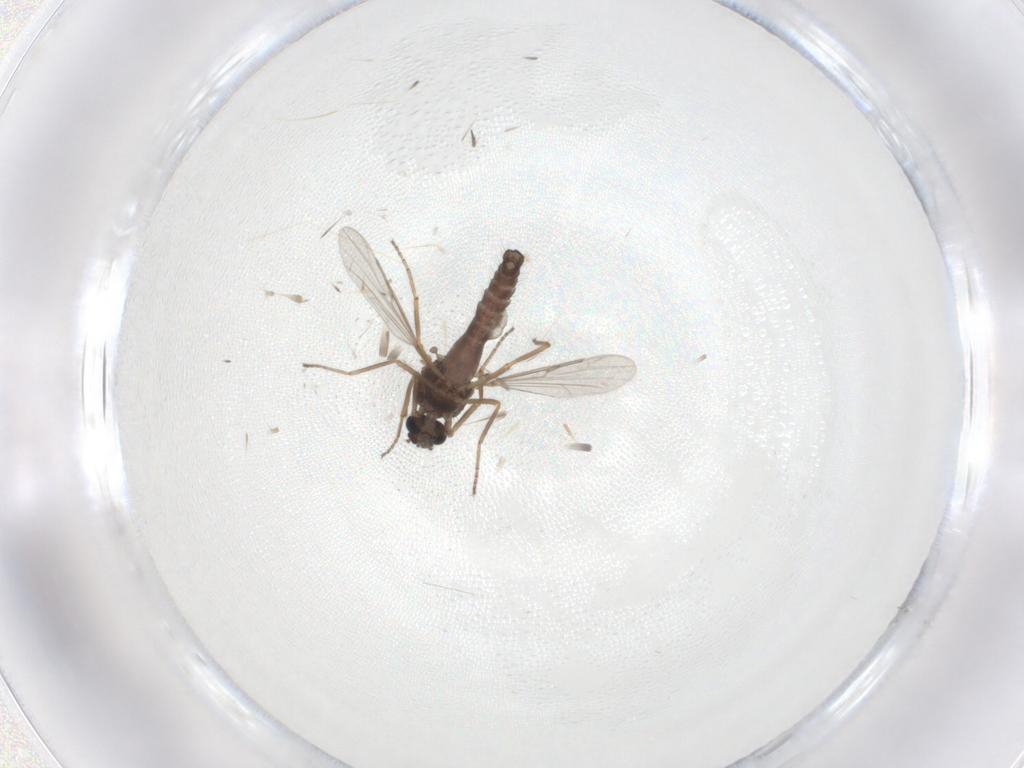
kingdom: Animalia
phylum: Arthropoda
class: Insecta
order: Diptera
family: Ceratopogonidae
